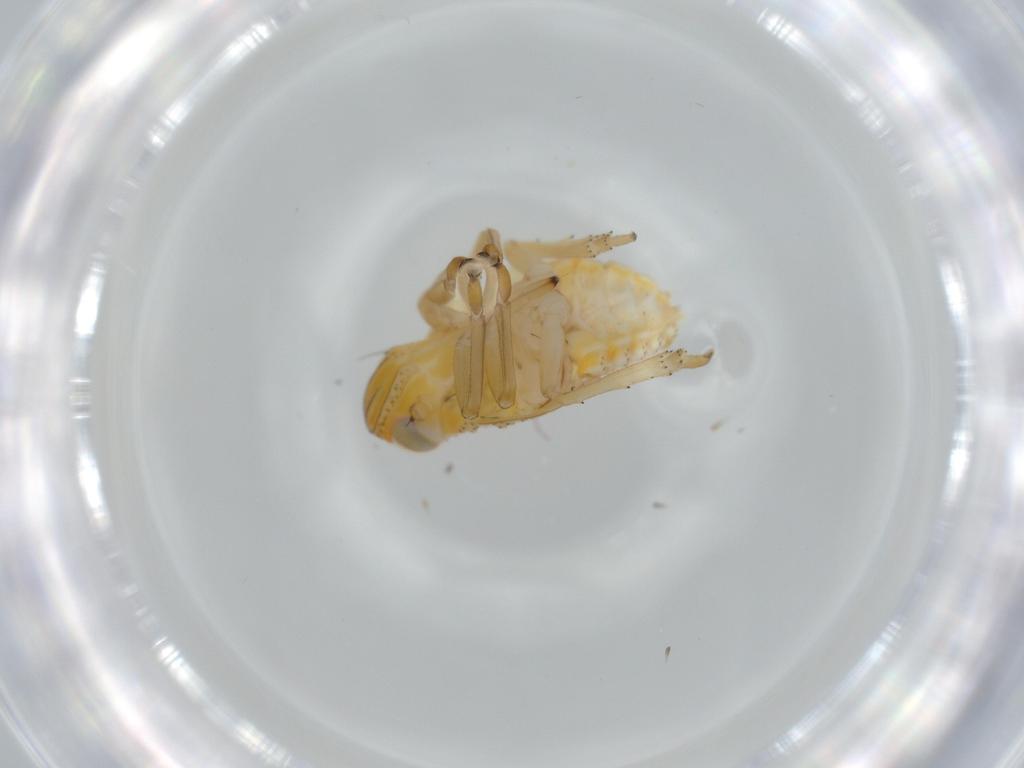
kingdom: Animalia
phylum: Arthropoda
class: Insecta
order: Hemiptera
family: Issidae
